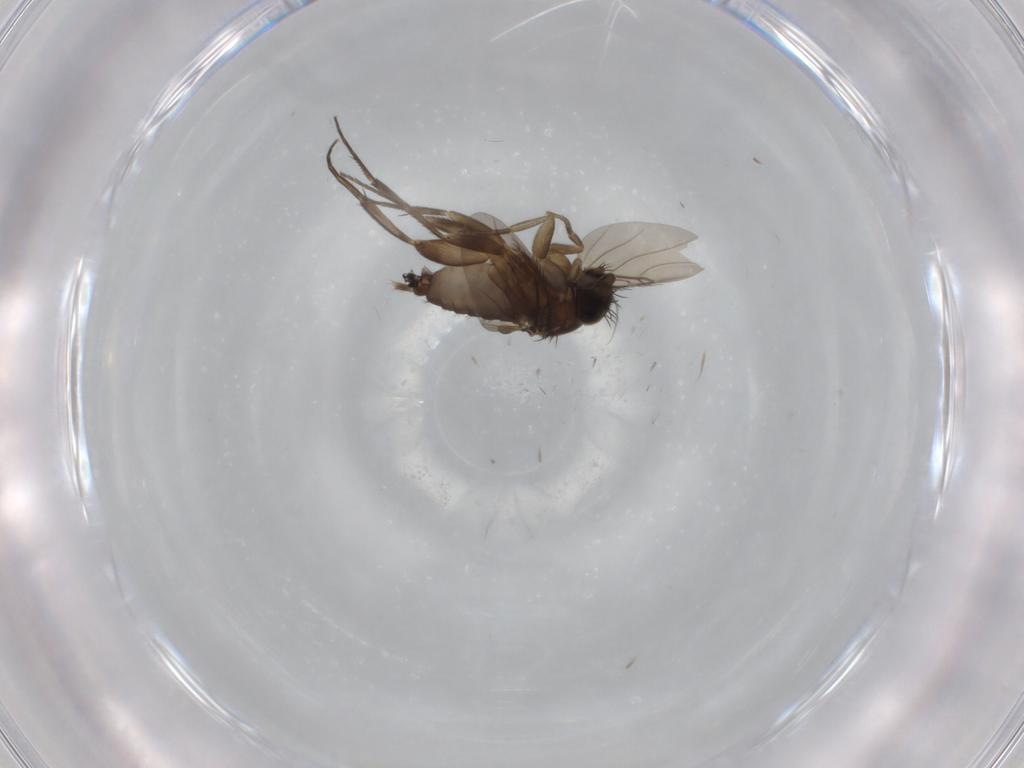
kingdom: Animalia
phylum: Arthropoda
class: Insecta
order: Diptera
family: Phoridae
